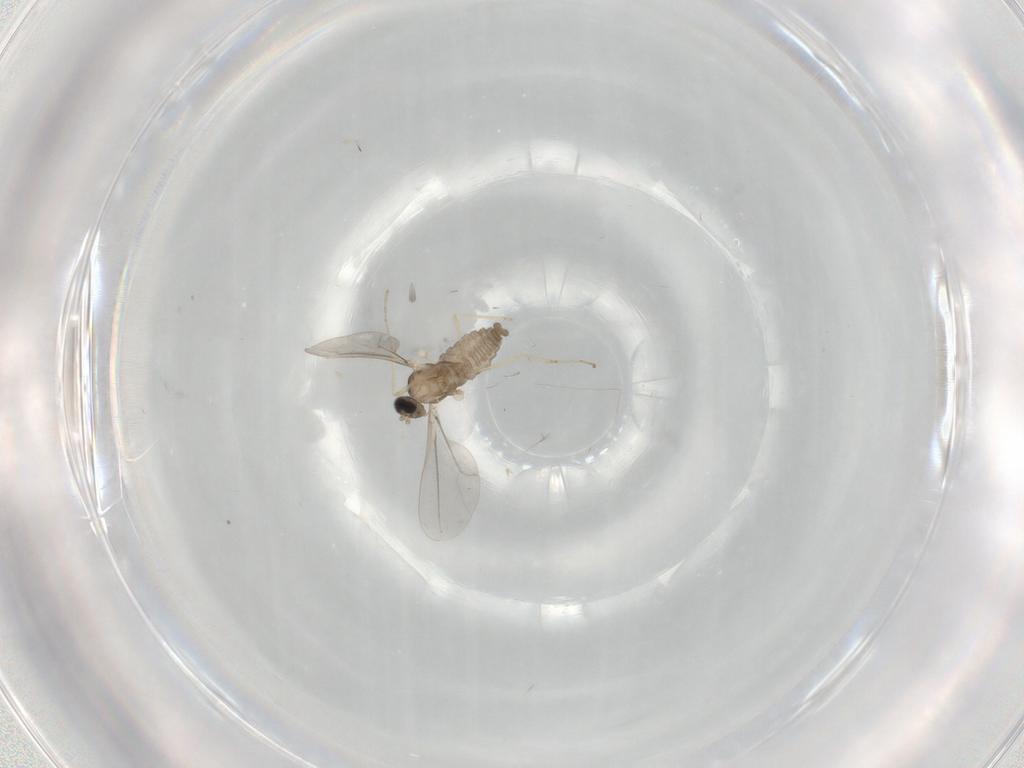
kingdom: Animalia
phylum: Arthropoda
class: Insecta
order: Diptera
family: Cecidomyiidae
